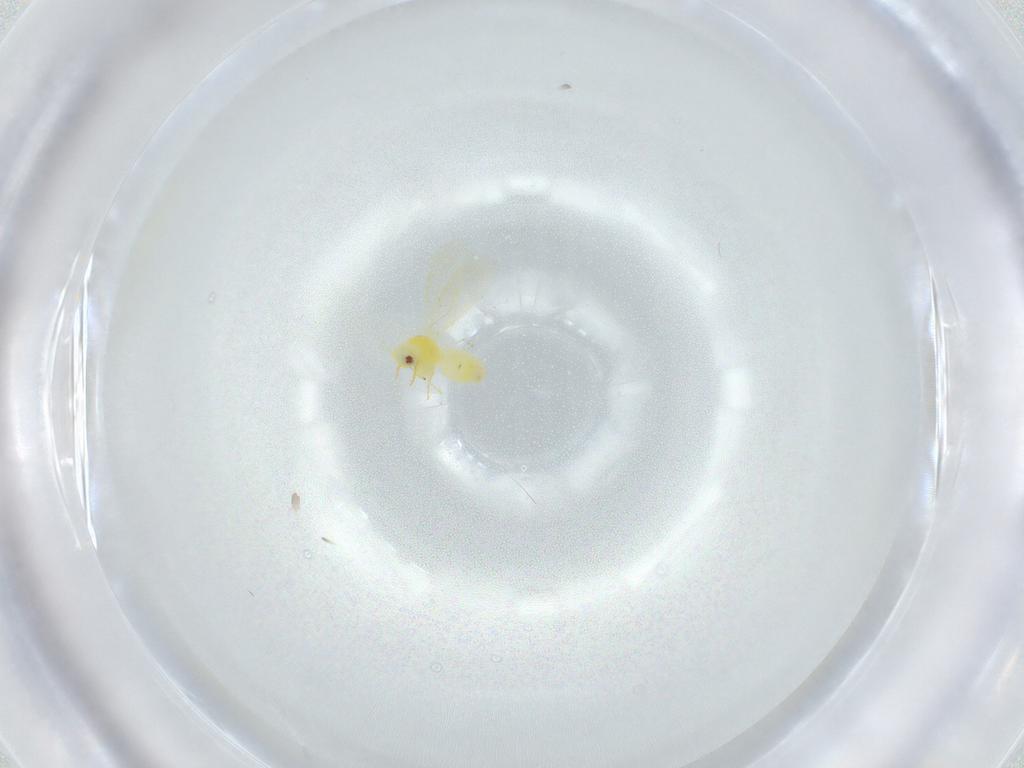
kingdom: Animalia
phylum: Arthropoda
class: Insecta
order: Hemiptera
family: Aleyrodidae
